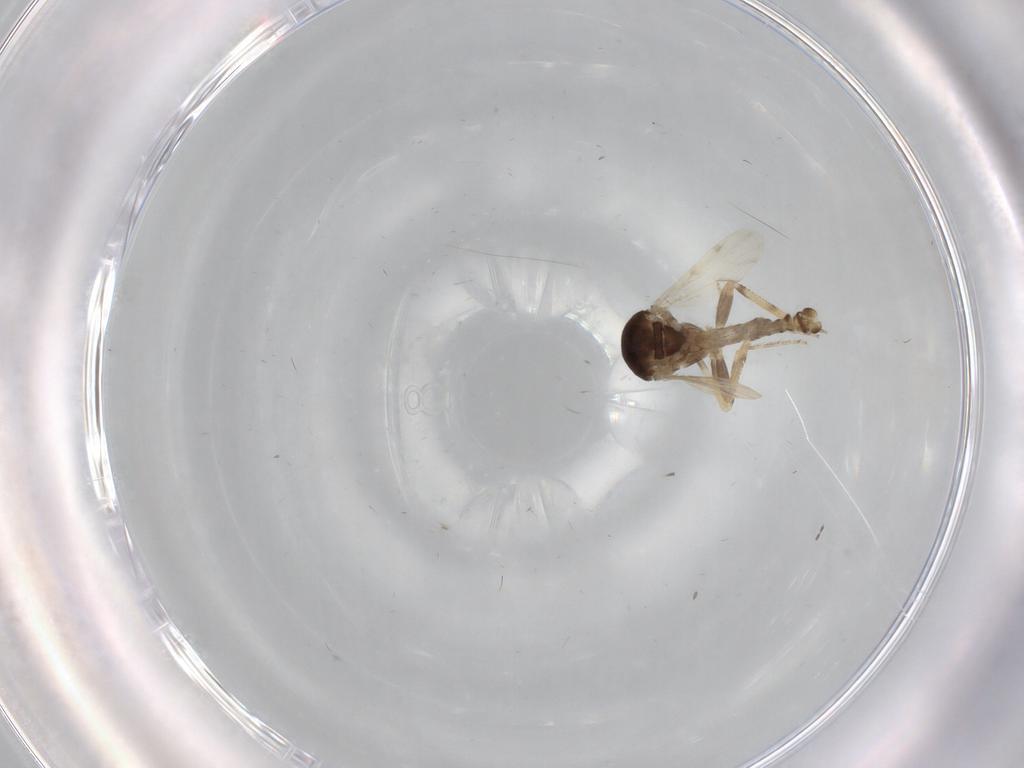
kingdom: Animalia
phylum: Arthropoda
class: Insecta
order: Diptera
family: Ceratopogonidae
